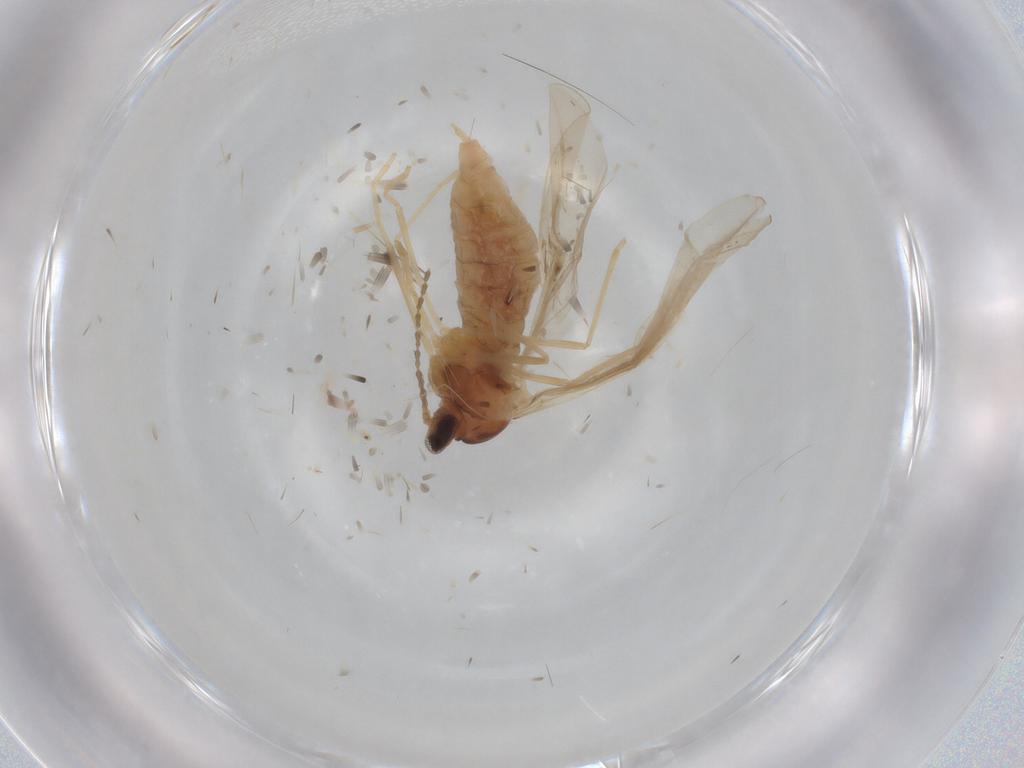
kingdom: Animalia
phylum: Arthropoda
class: Insecta
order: Diptera
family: Cecidomyiidae
